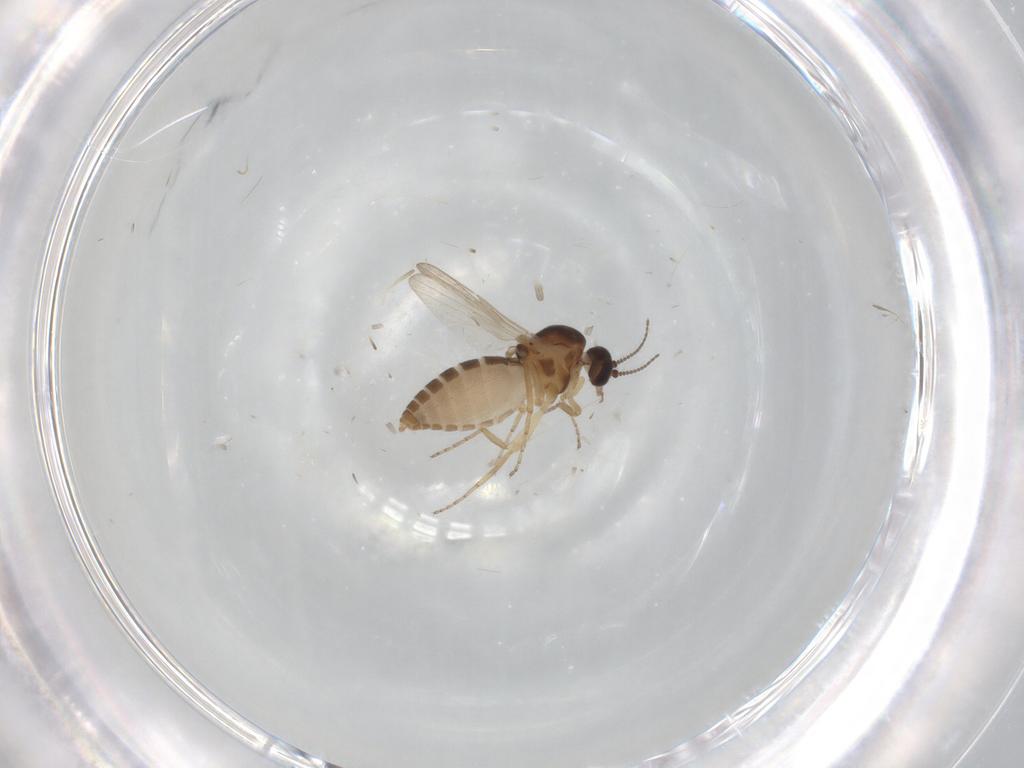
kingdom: Animalia
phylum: Arthropoda
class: Insecta
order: Diptera
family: Ceratopogonidae
